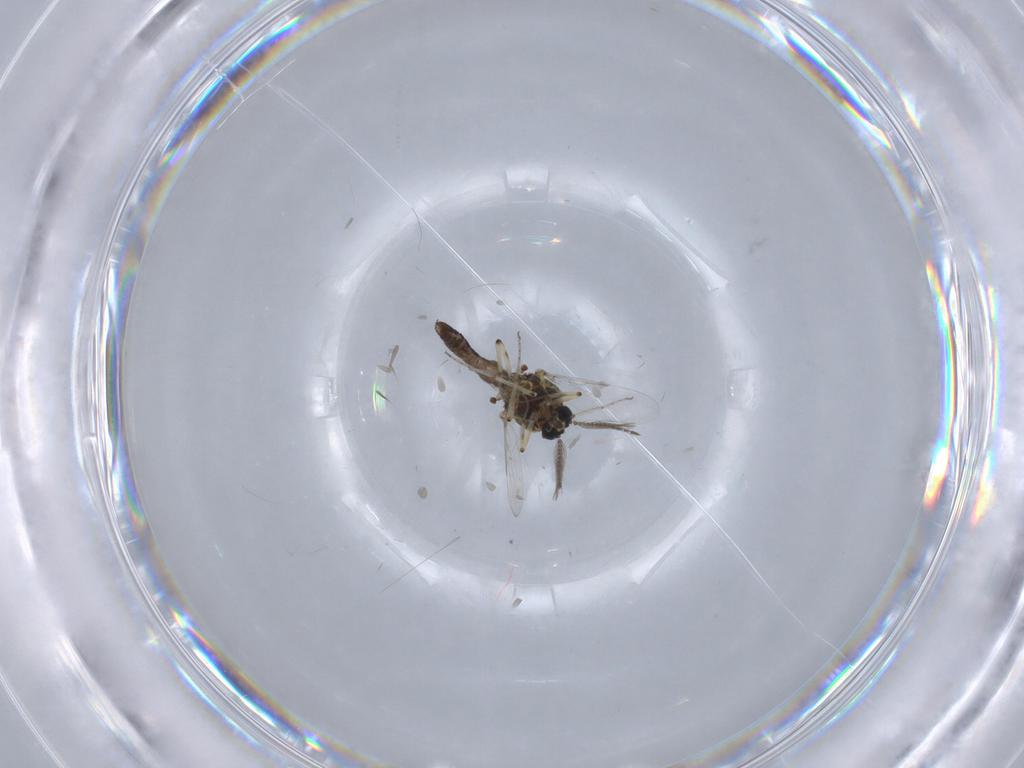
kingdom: Animalia
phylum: Arthropoda
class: Insecta
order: Diptera
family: Ceratopogonidae
